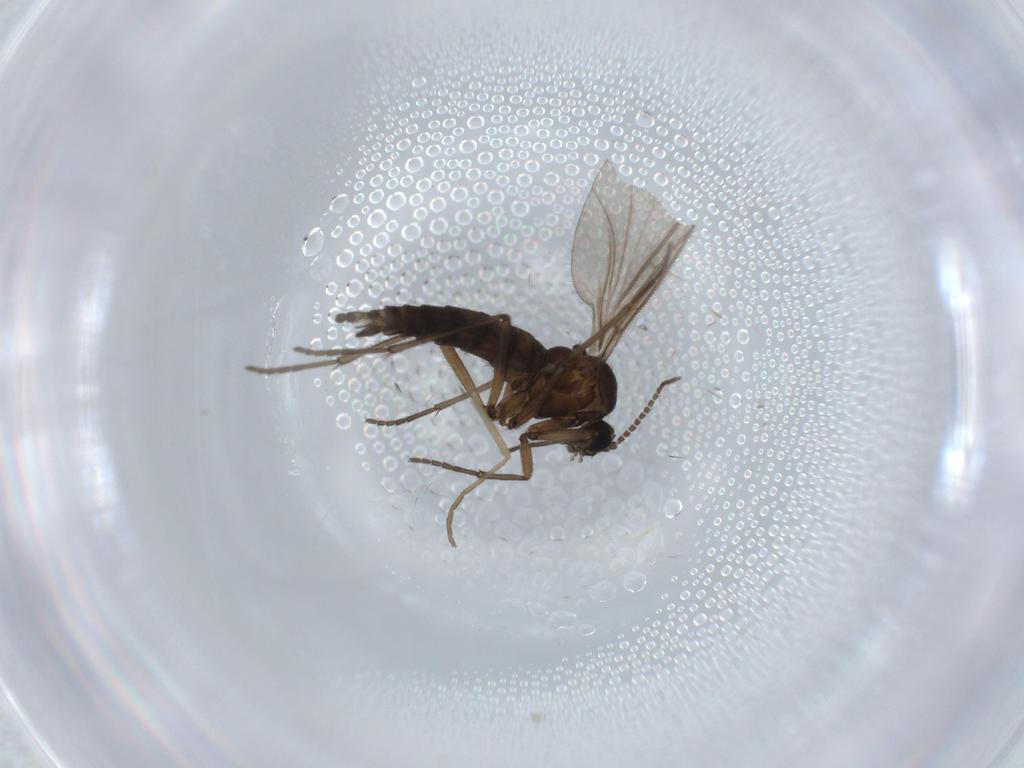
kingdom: Animalia
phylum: Arthropoda
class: Insecta
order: Diptera
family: Sciaridae
